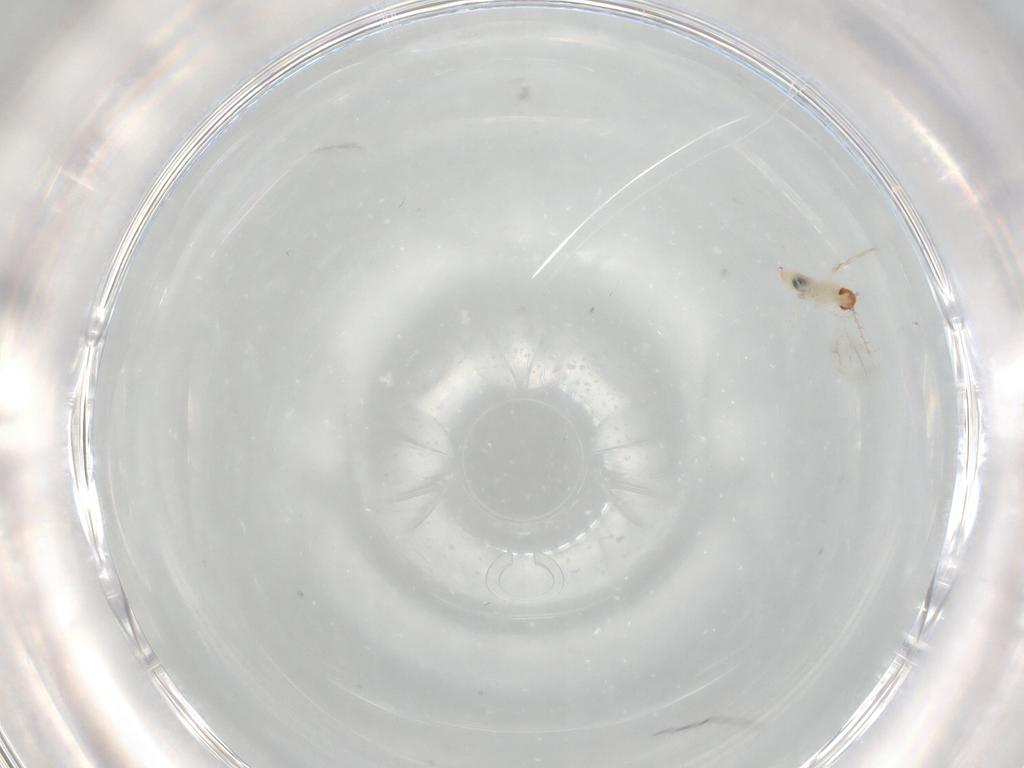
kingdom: Animalia
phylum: Arthropoda
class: Insecta
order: Diptera
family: Cecidomyiidae
